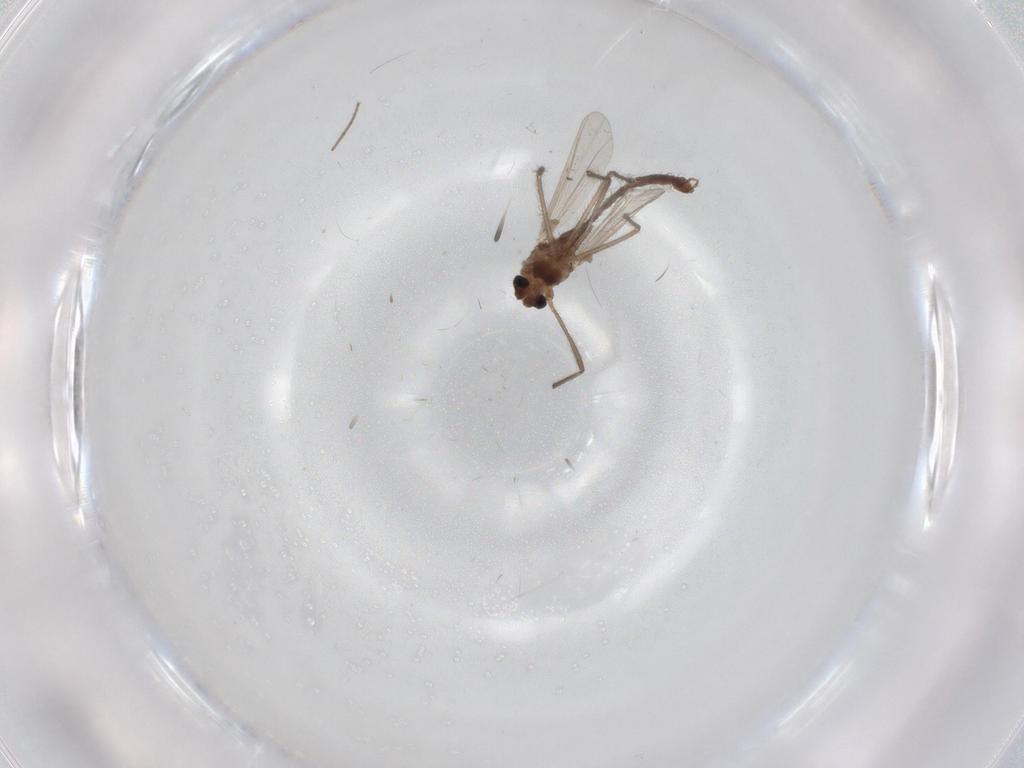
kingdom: Animalia
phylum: Arthropoda
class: Insecta
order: Diptera
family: Chironomidae
